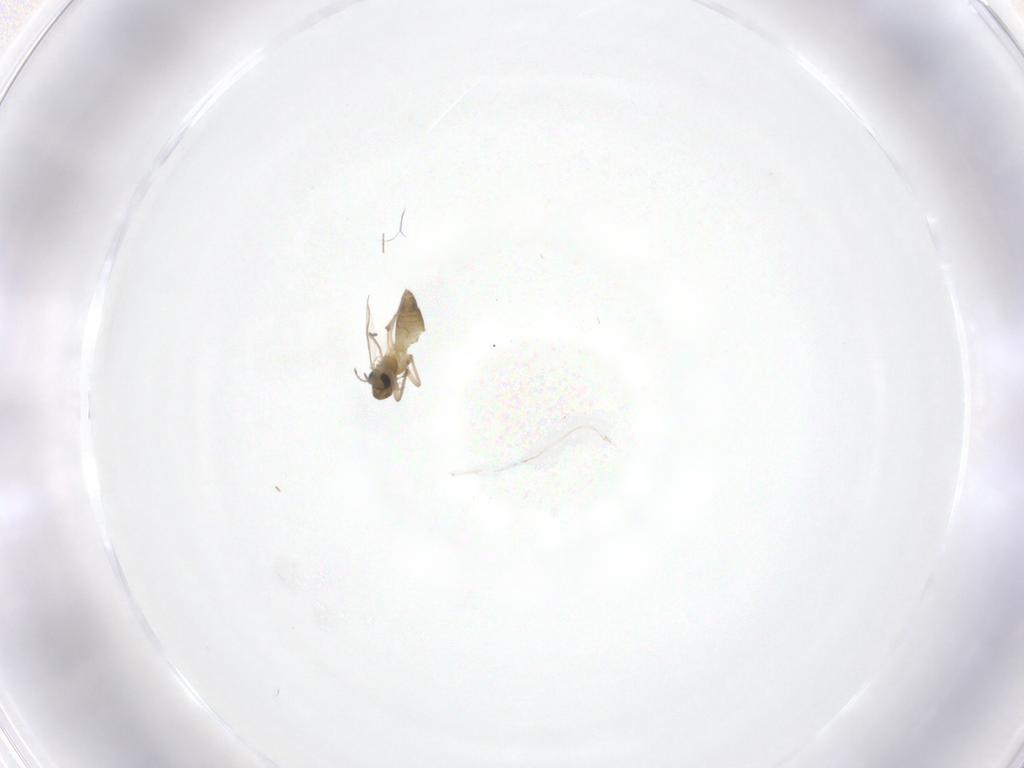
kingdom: Animalia
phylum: Arthropoda
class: Insecta
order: Diptera
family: Chironomidae
